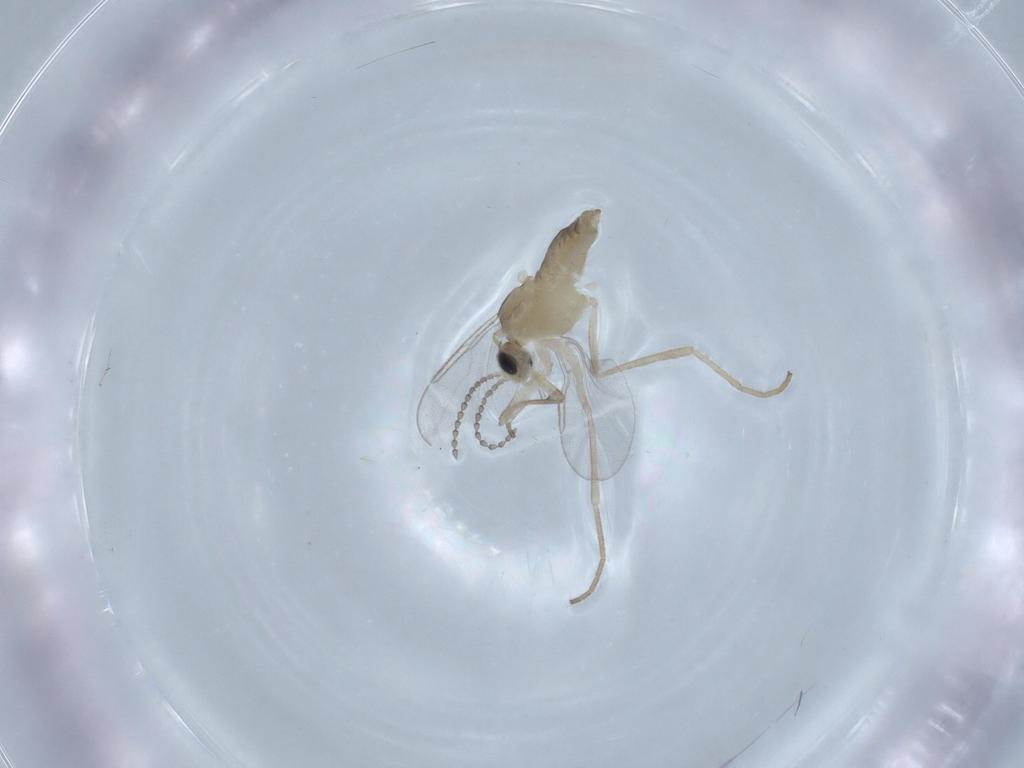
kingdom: Animalia
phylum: Arthropoda
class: Insecta
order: Diptera
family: Cecidomyiidae
